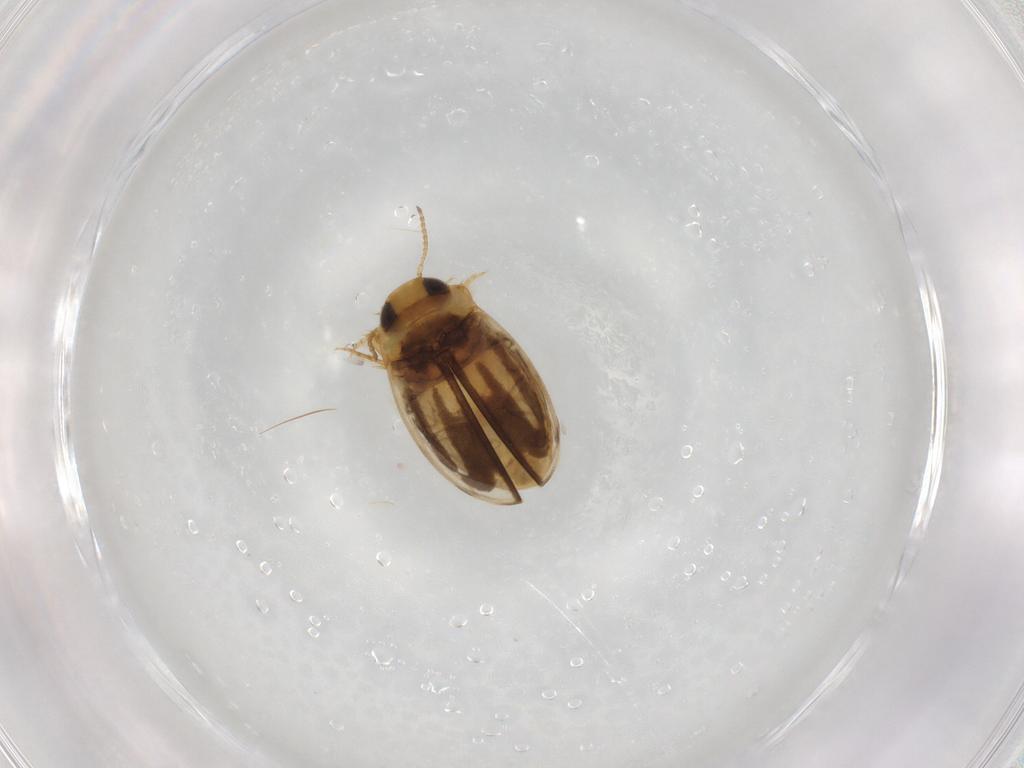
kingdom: Animalia
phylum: Arthropoda
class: Insecta
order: Coleoptera
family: Dytiscidae
